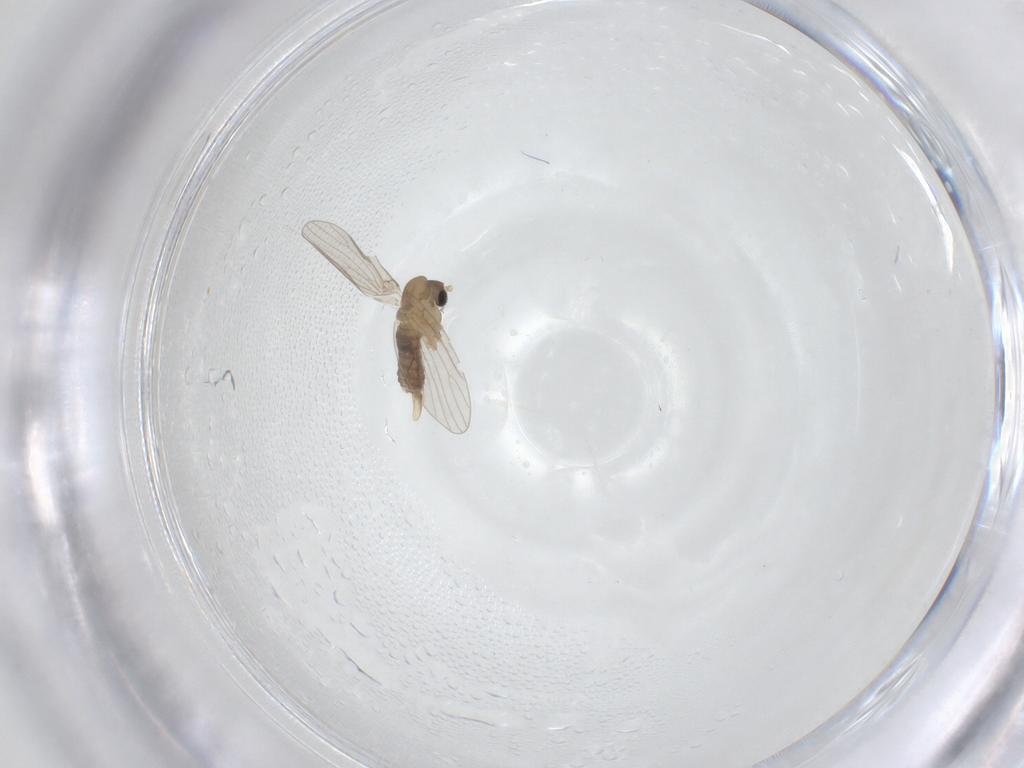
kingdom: Animalia
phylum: Arthropoda
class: Insecta
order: Diptera
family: Psychodidae
